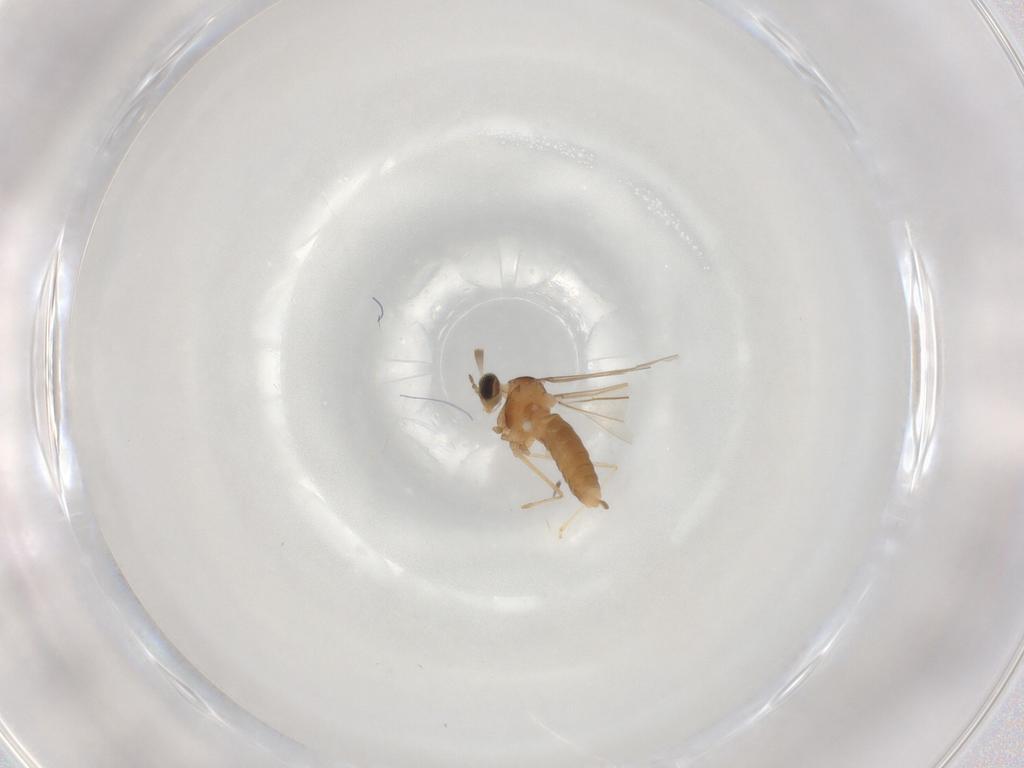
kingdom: Animalia
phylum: Arthropoda
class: Insecta
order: Diptera
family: Cecidomyiidae
